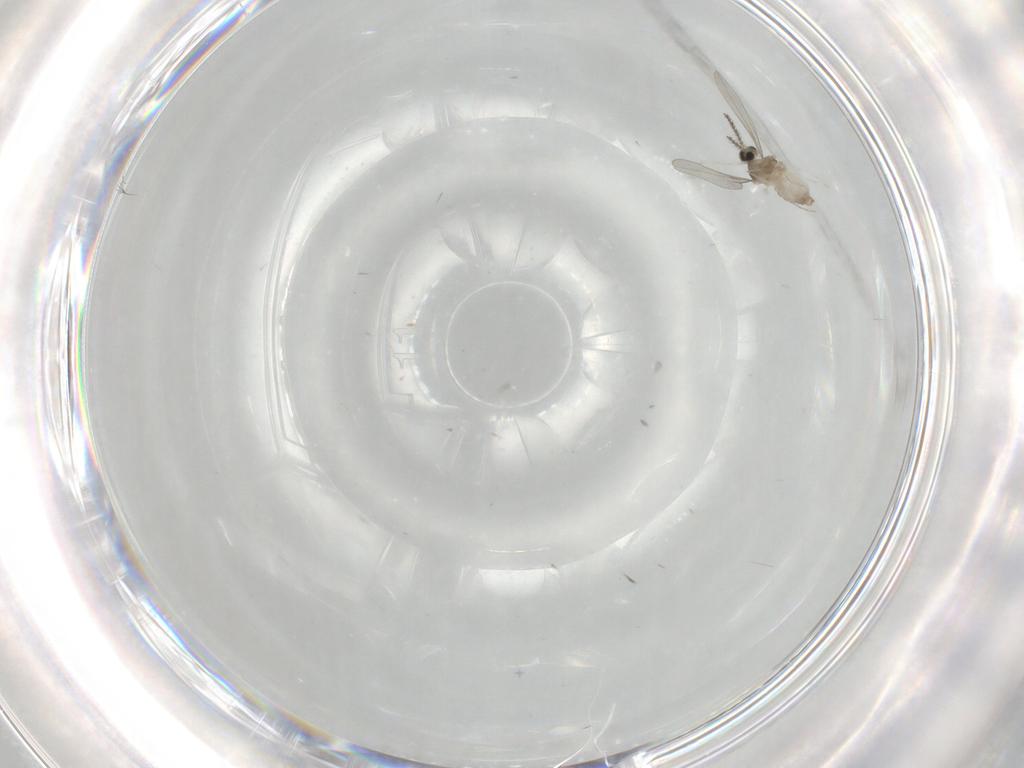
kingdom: Animalia
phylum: Arthropoda
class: Insecta
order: Diptera
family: Cecidomyiidae
